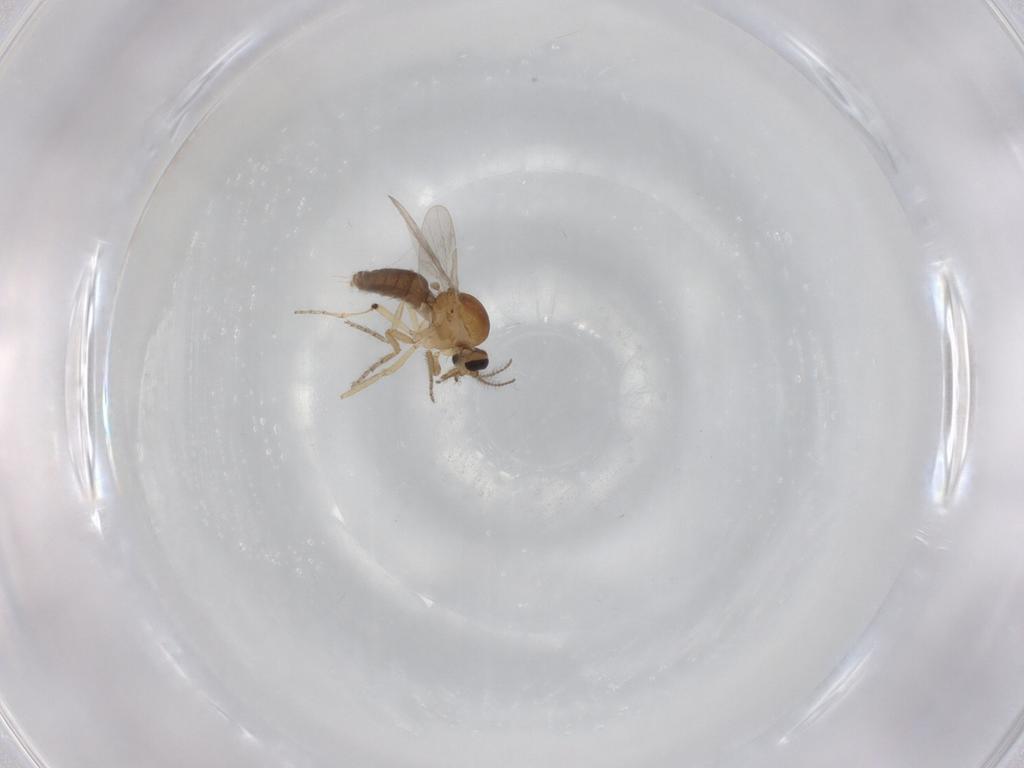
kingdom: Animalia
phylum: Arthropoda
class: Insecta
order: Diptera
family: Ceratopogonidae
